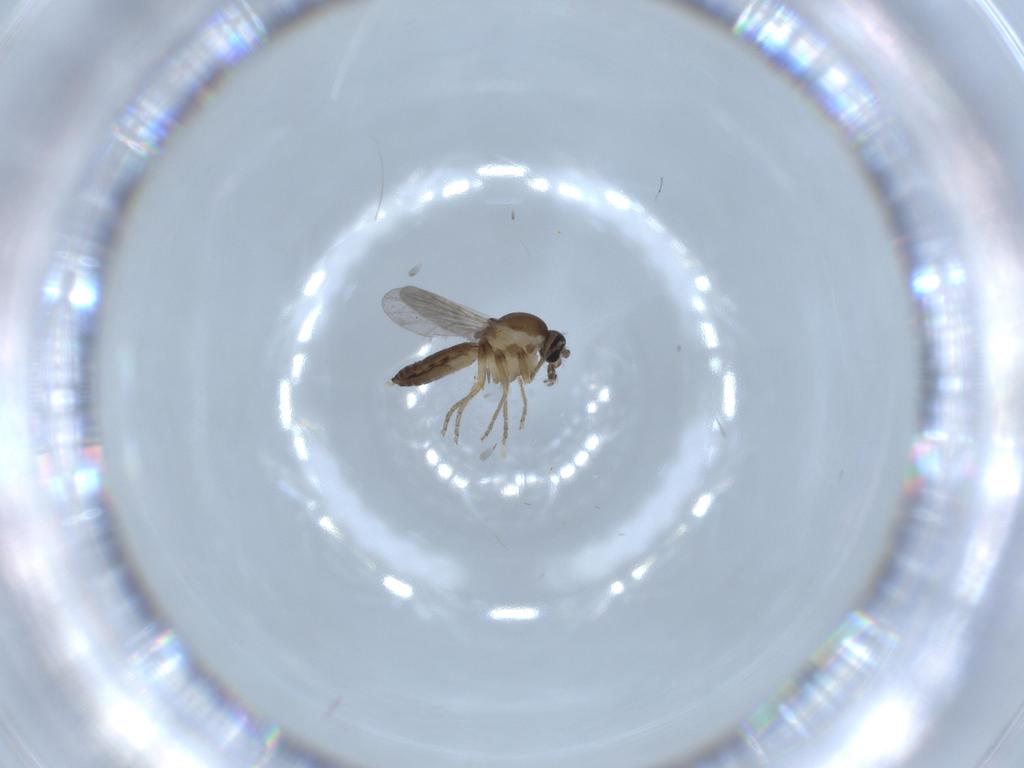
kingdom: Animalia
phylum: Arthropoda
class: Insecta
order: Diptera
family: Ceratopogonidae
